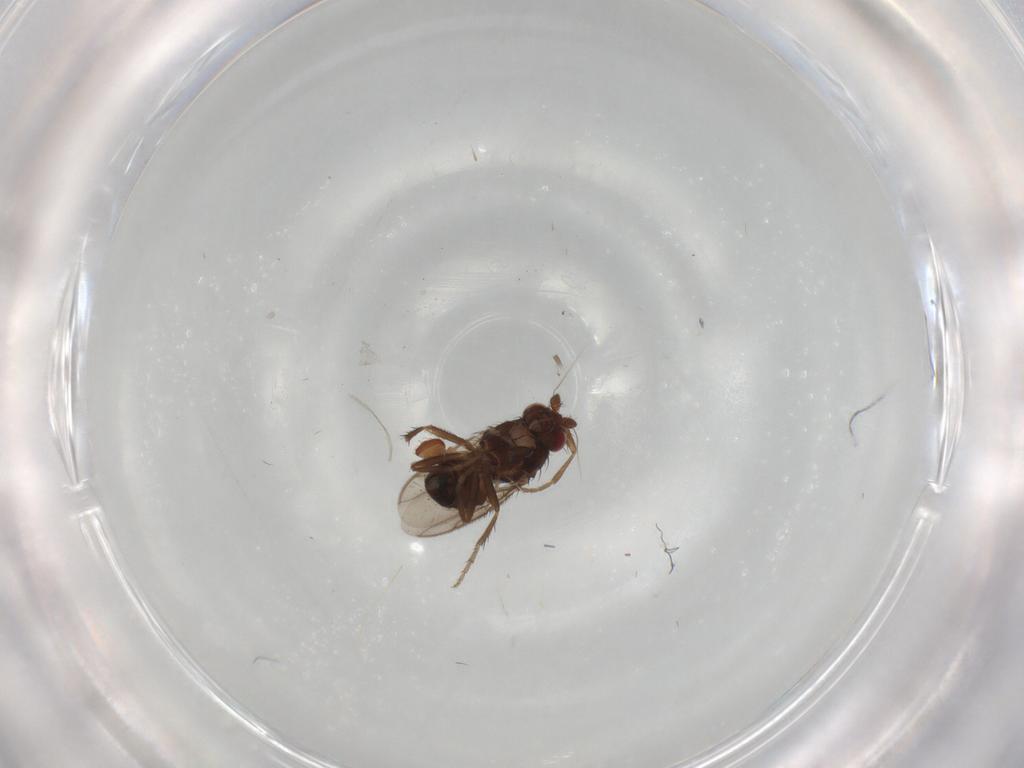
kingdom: Animalia
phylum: Arthropoda
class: Insecta
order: Diptera
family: Sphaeroceridae
